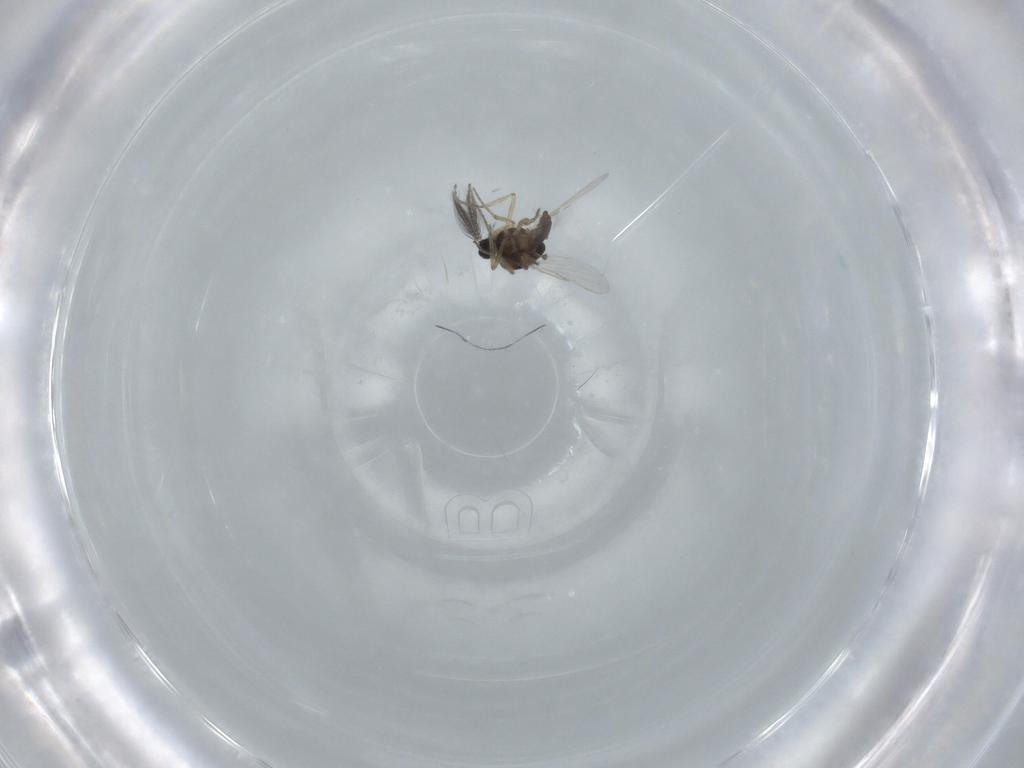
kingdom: Animalia
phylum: Arthropoda
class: Insecta
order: Diptera
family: Ceratopogonidae
